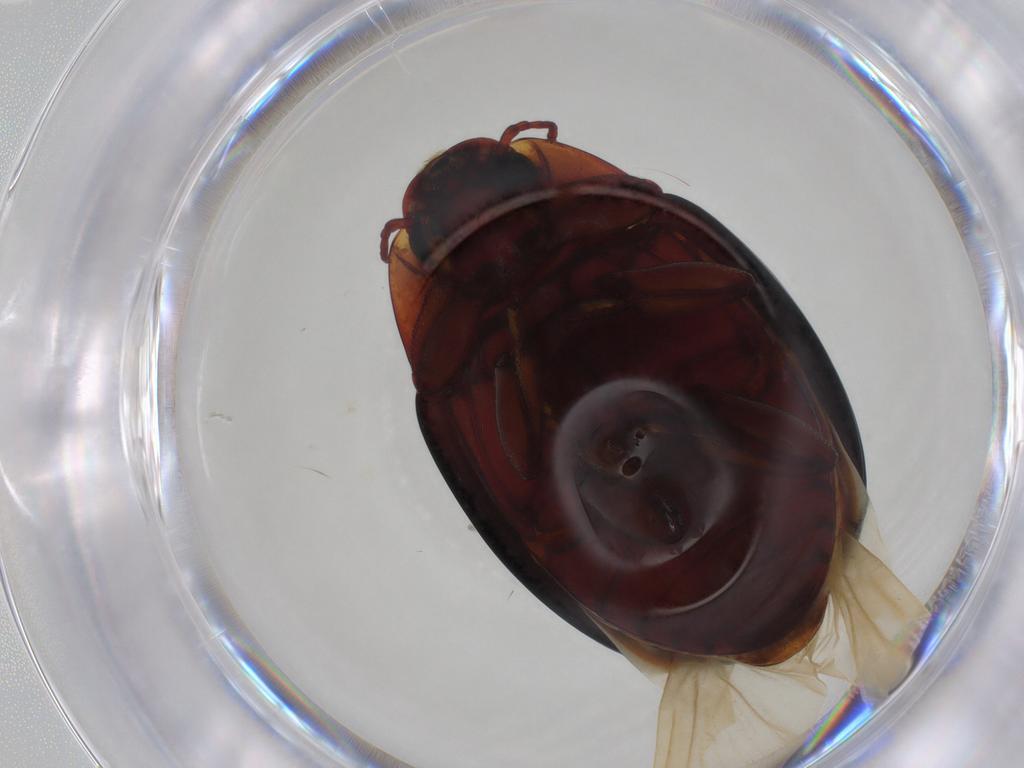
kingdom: Animalia
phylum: Arthropoda
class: Insecta
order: Coleoptera
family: Zopheridae
